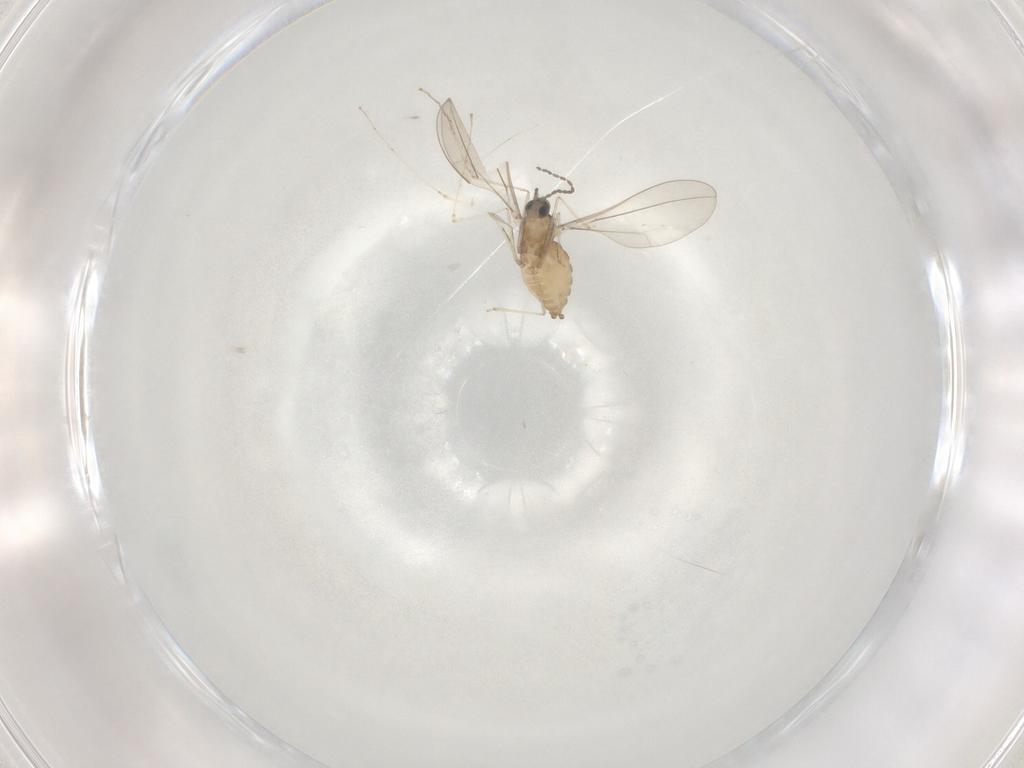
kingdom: Animalia
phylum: Arthropoda
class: Insecta
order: Diptera
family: Cecidomyiidae
